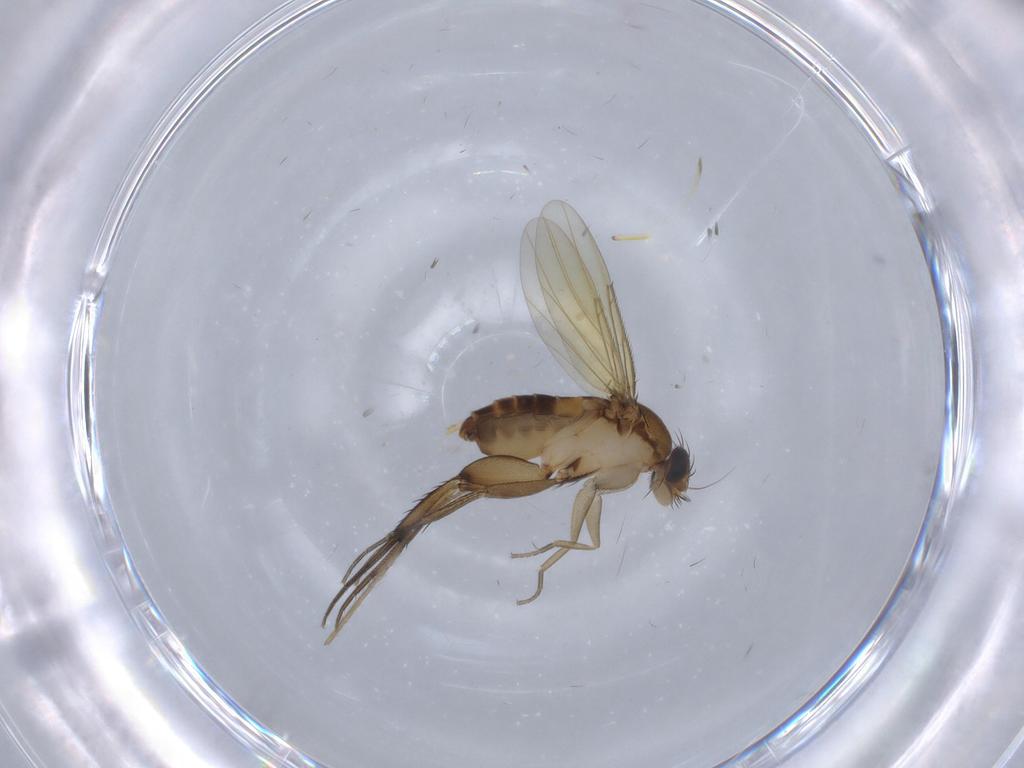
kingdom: Animalia
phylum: Arthropoda
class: Insecta
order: Diptera
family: Phoridae
